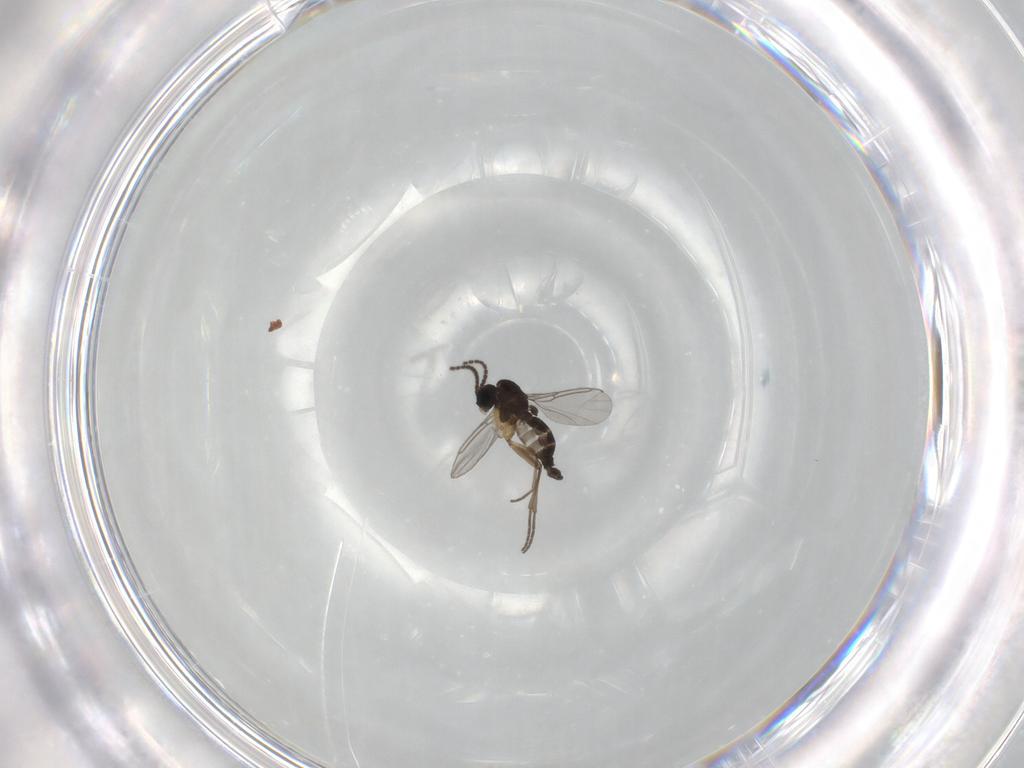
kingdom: Animalia
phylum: Arthropoda
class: Insecta
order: Diptera
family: Sciaridae
